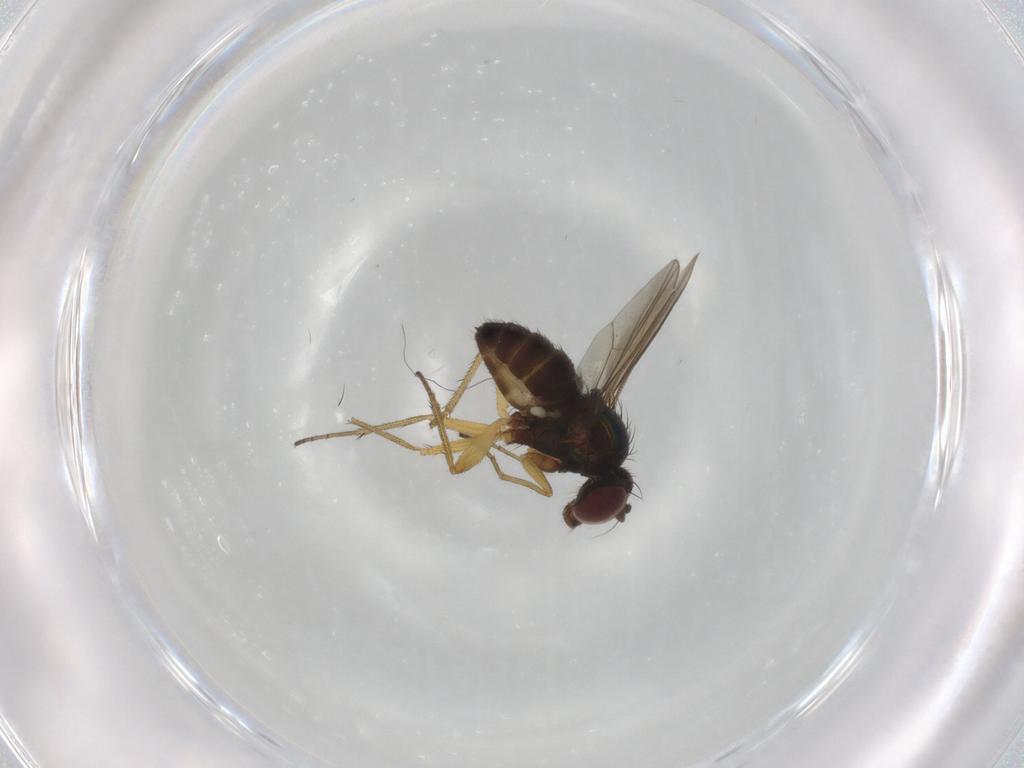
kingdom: Animalia
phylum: Arthropoda
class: Insecta
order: Diptera
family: Dolichopodidae
